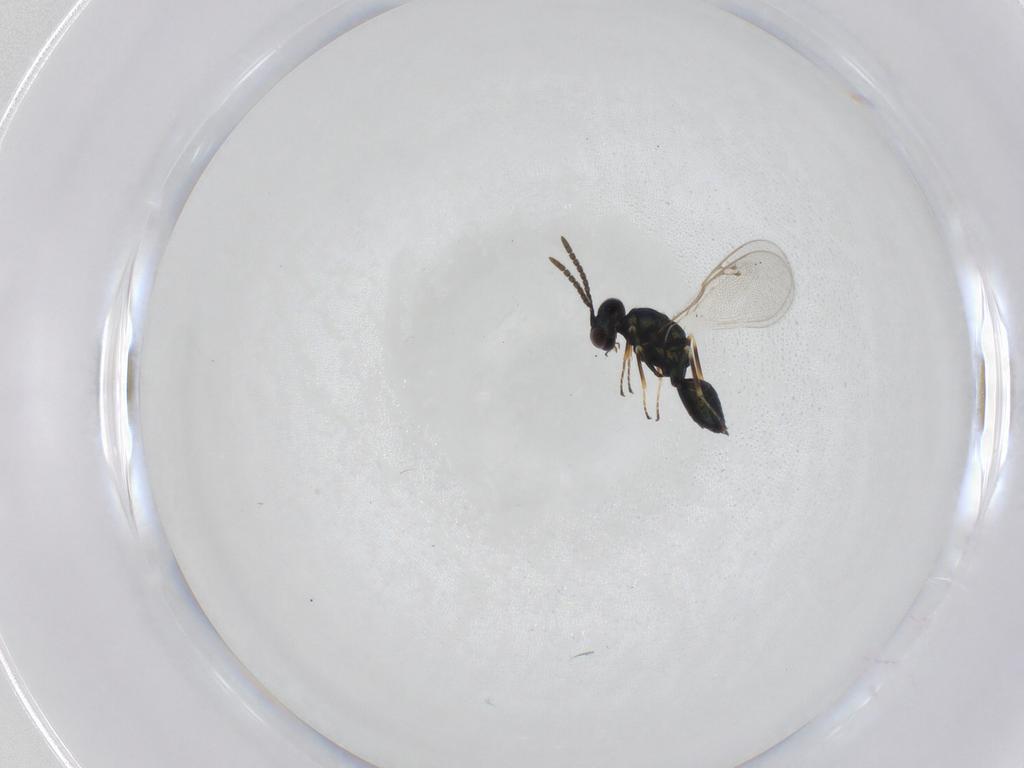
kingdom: Animalia
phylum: Arthropoda
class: Insecta
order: Hymenoptera
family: Pteromalidae
